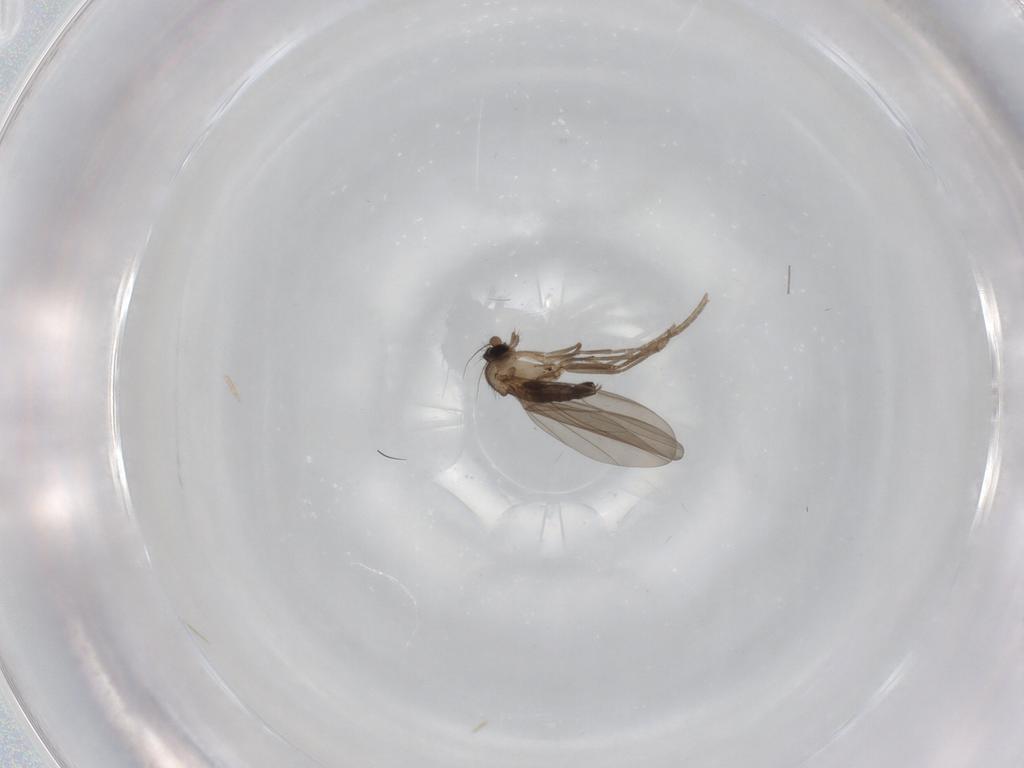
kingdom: Animalia
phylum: Arthropoda
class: Insecta
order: Diptera
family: Phoridae
